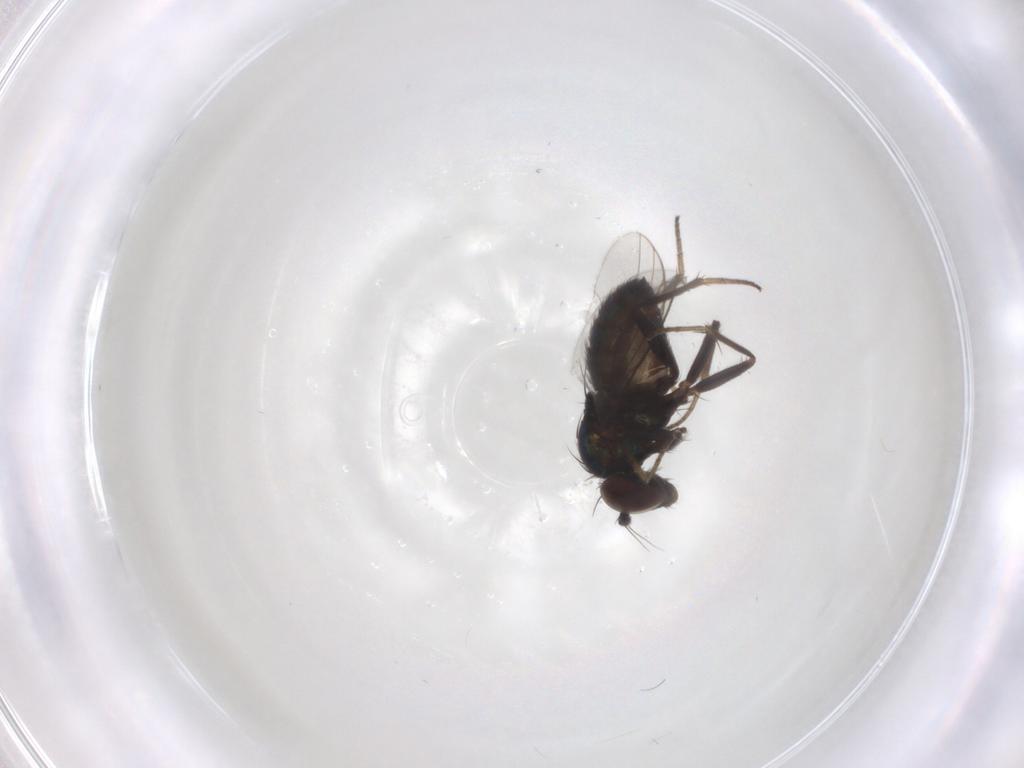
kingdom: Animalia
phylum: Arthropoda
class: Insecta
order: Diptera
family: Dolichopodidae
